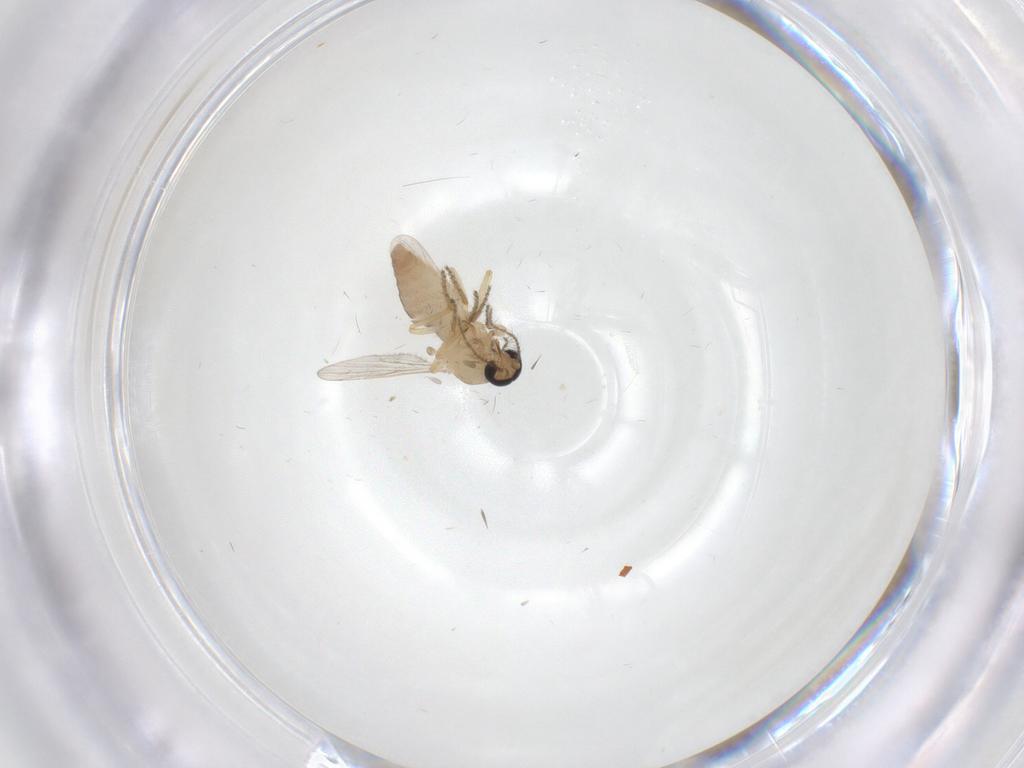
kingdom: Animalia
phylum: Arthropoda
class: Insecta
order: Diptera
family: Ceratopogonidae
